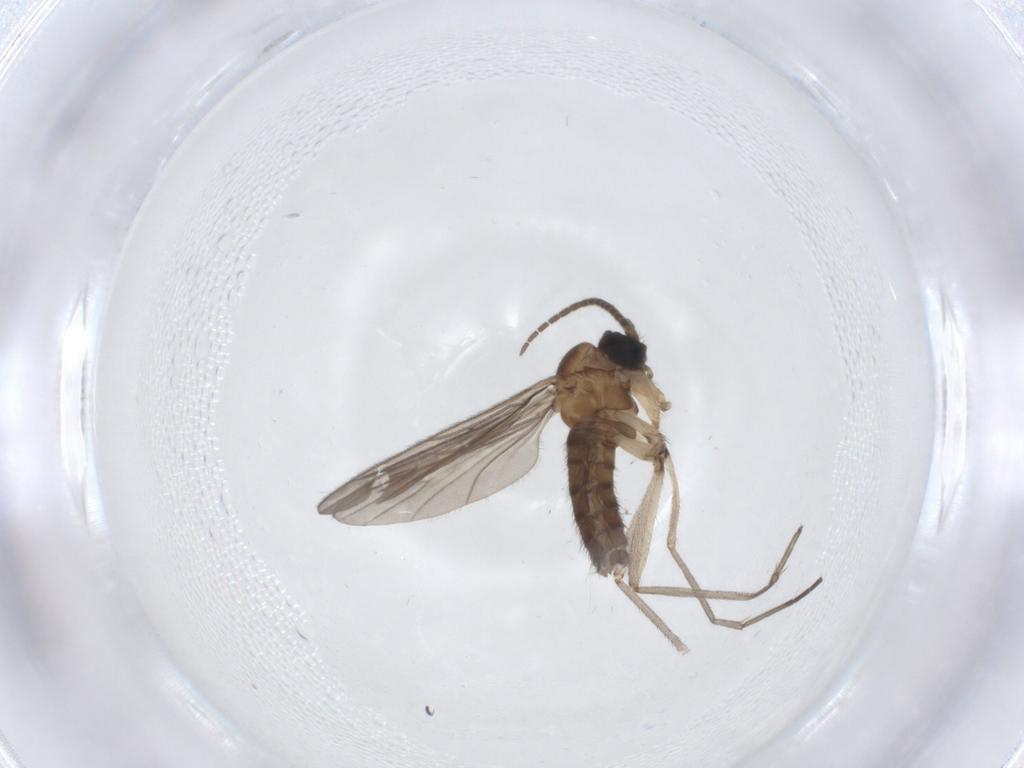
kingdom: Animalia
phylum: Arthropoda
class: Insecta
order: Diptera
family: Sciaridae
